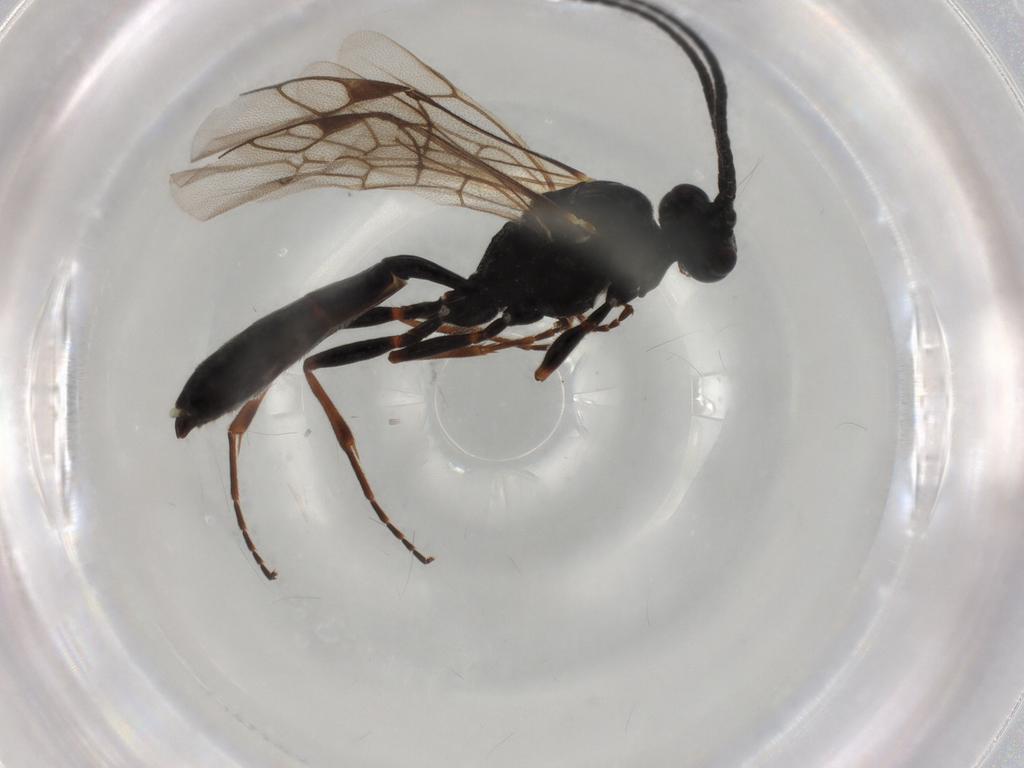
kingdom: Animalia
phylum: Arthropoda
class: Insecta
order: Hymenoptera
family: Ichneumonidae
